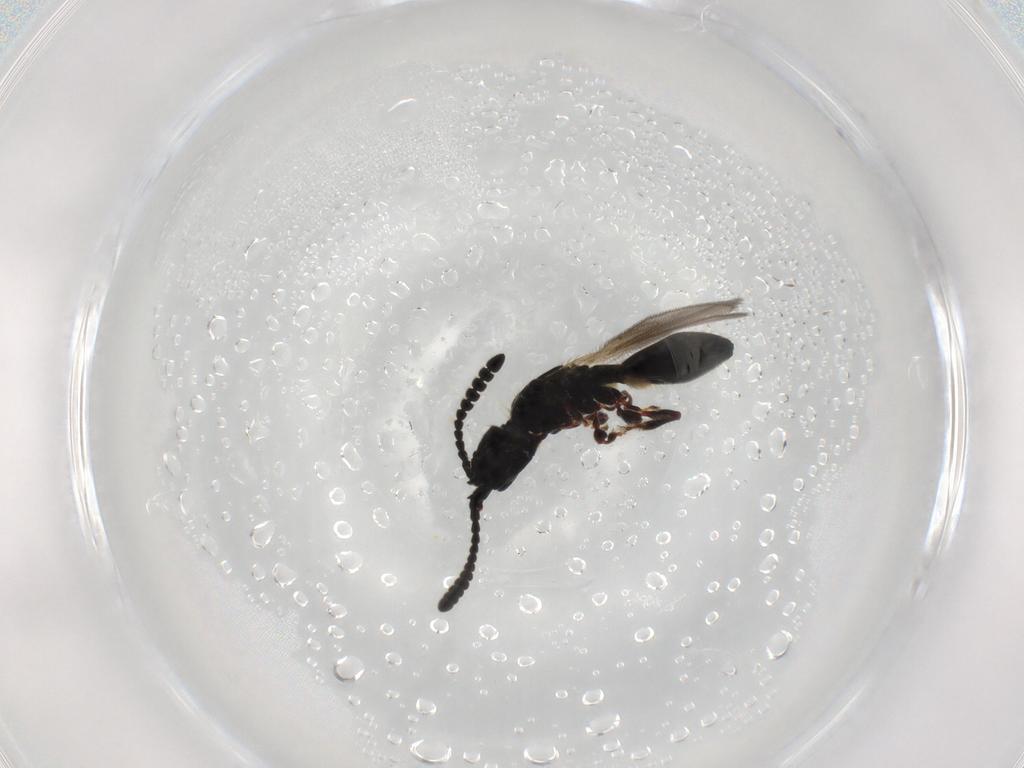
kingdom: Animalia
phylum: Arthropoda
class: Insecta
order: Hymenoptera
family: Diapriidae
